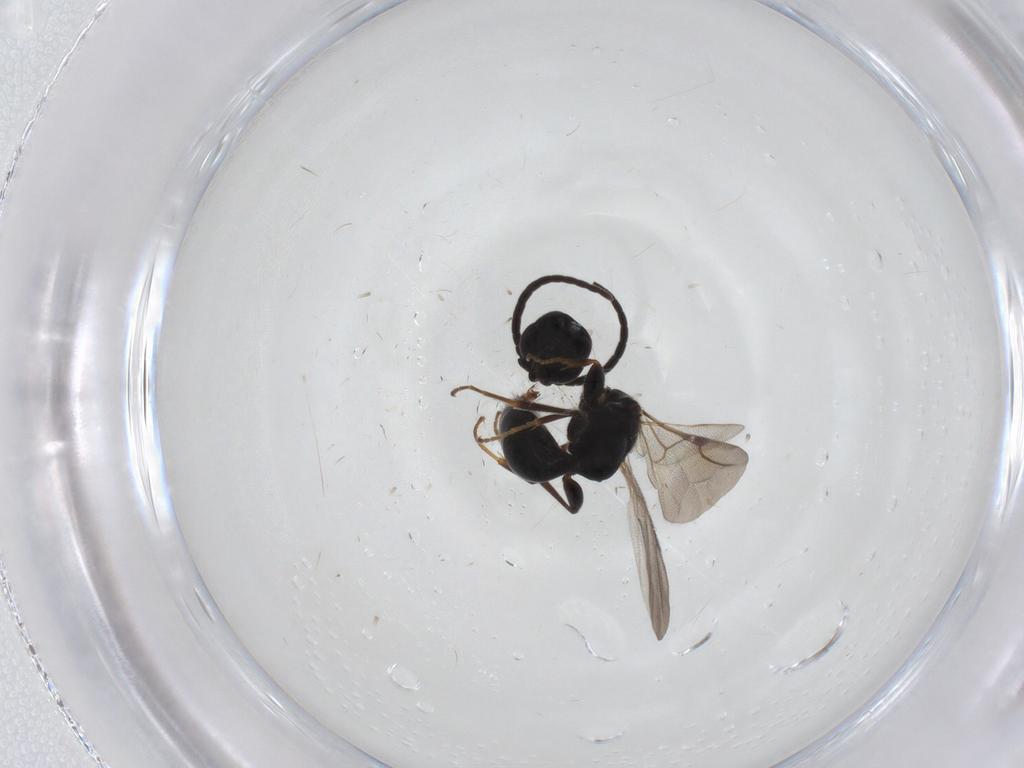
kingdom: Animalia
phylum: Arthropoda
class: Insecta
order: Hymenoptera
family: Bethylidae
